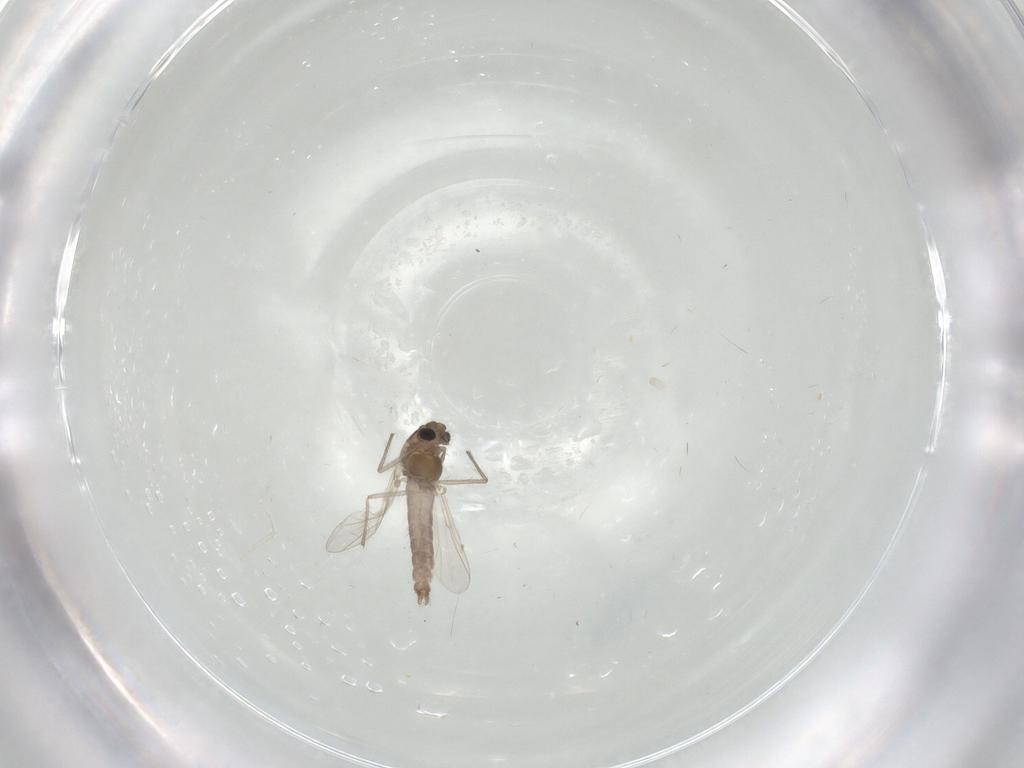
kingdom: Animalia
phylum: Arthropoda
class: Insecta
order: Diptera
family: Chironomidae
